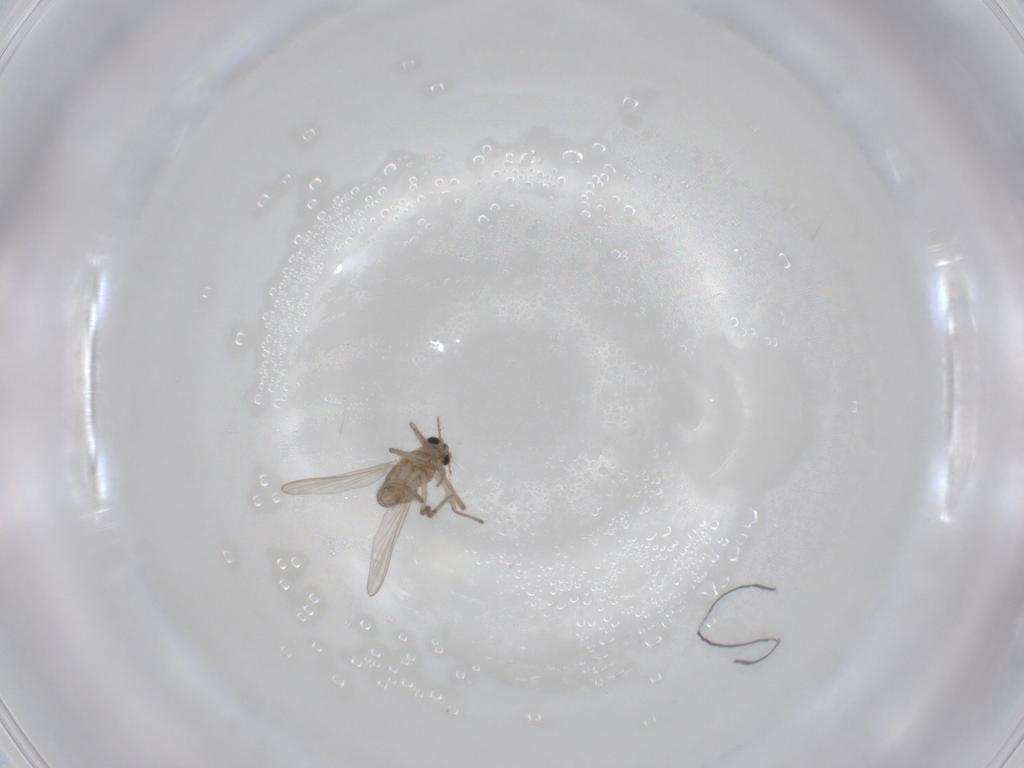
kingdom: Animalia
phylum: Arthropoda
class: Insecta
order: Diptera
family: Chironomidae
